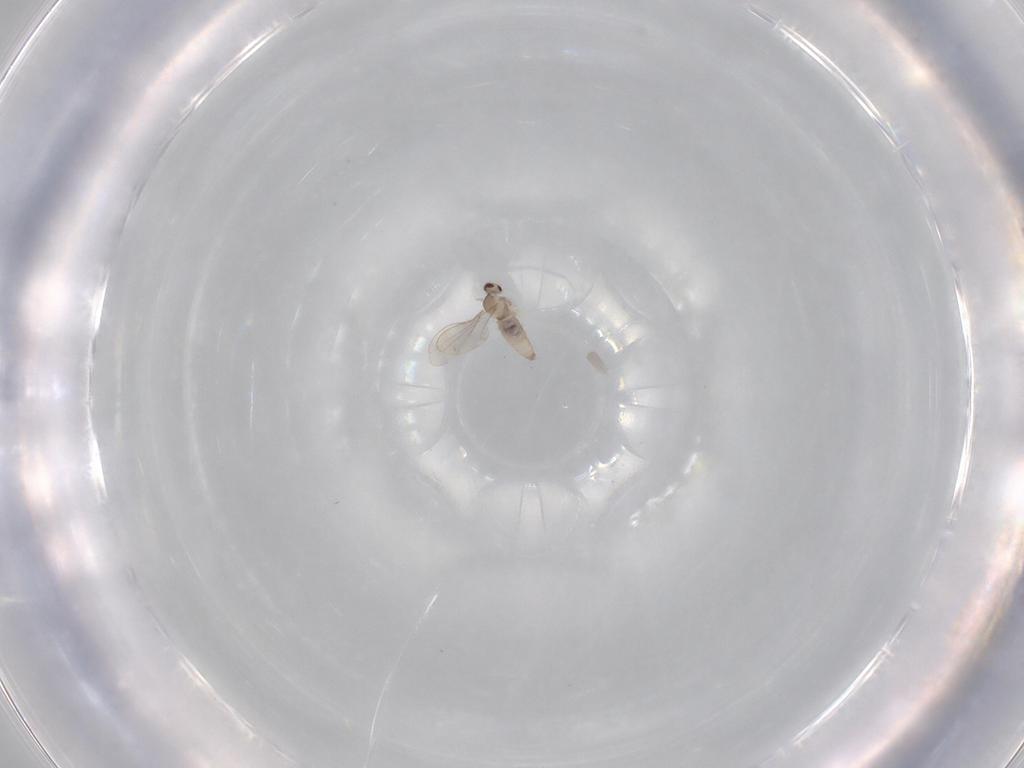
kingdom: Animalia
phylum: Arthropoda
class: Insecta
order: Diptera
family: Cecidomyiidae
